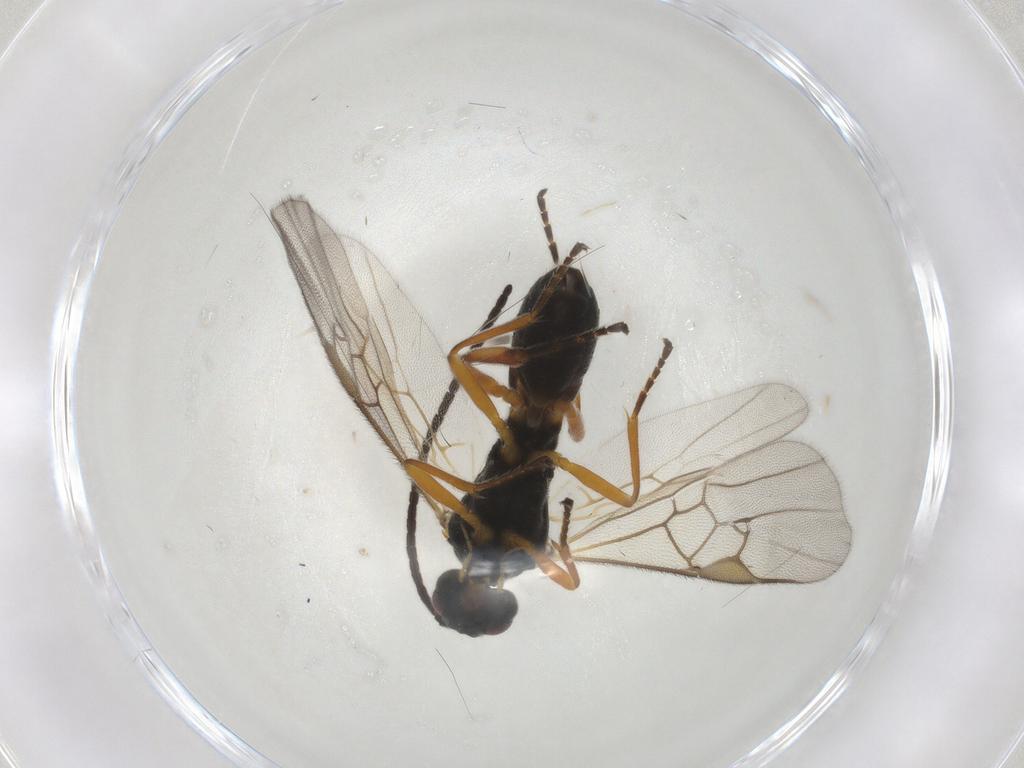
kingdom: Animalia
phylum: Arthropoda
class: Insecta
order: Hymenoptera
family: Braconidae
